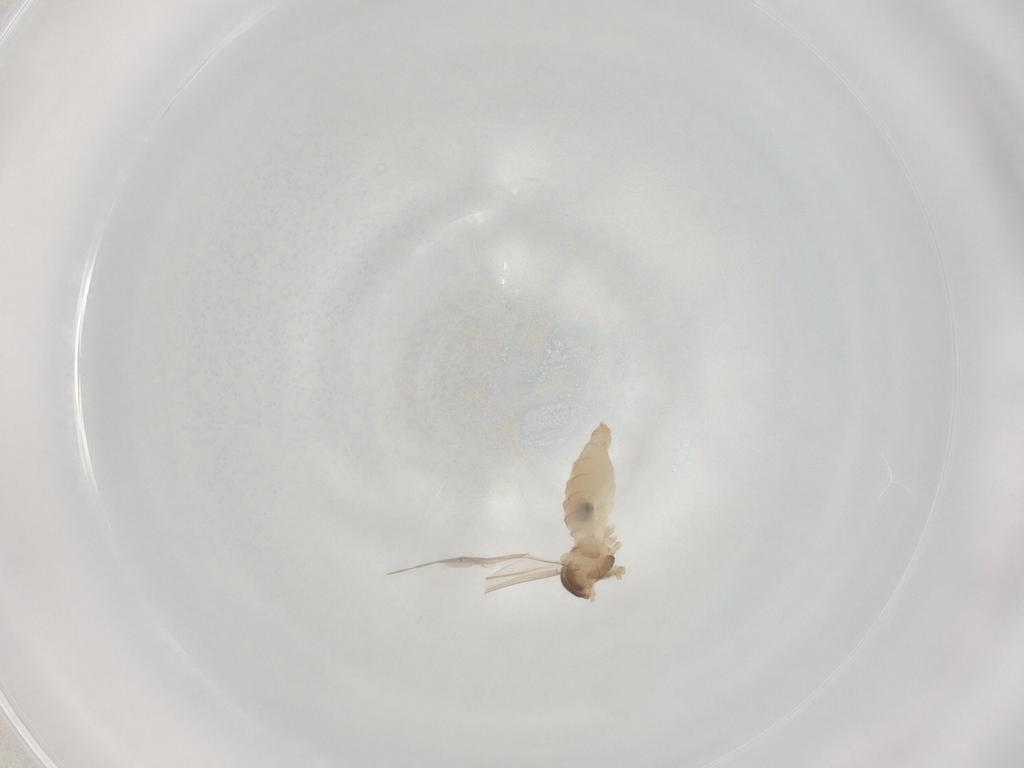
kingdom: Animalia
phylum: Arthropoda
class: Insecta
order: Diptera
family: Cecidomyiidae
